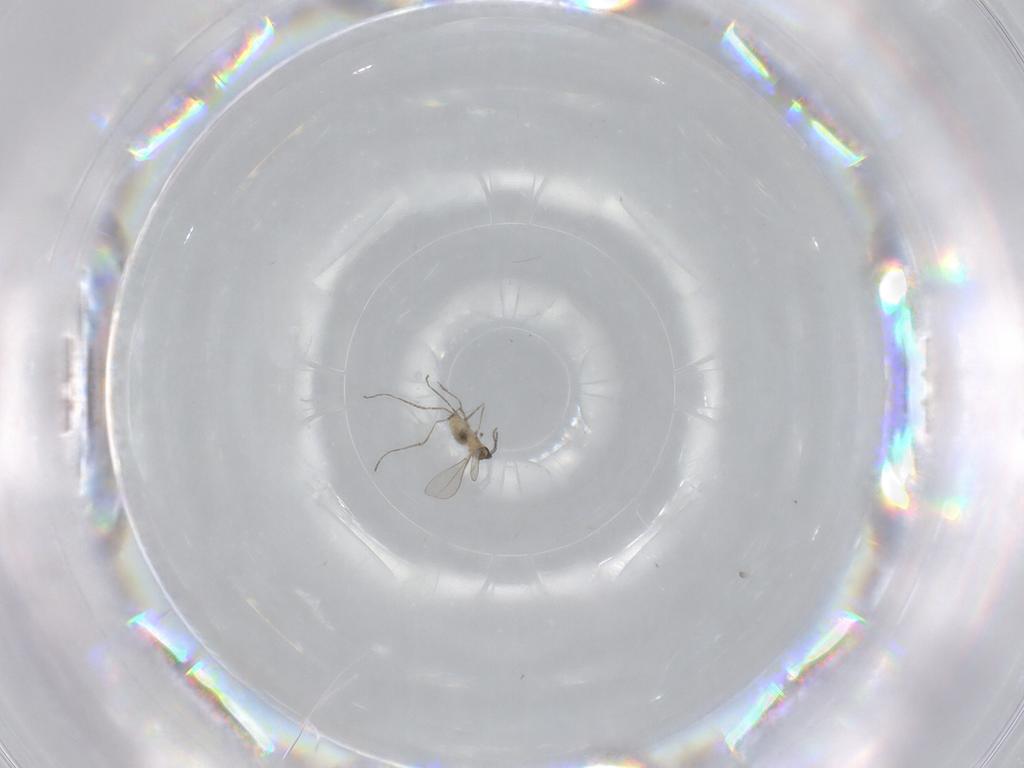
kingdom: Animalia
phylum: Arthropoda
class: Insecta
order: Diptera
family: Cecidomyiidae
